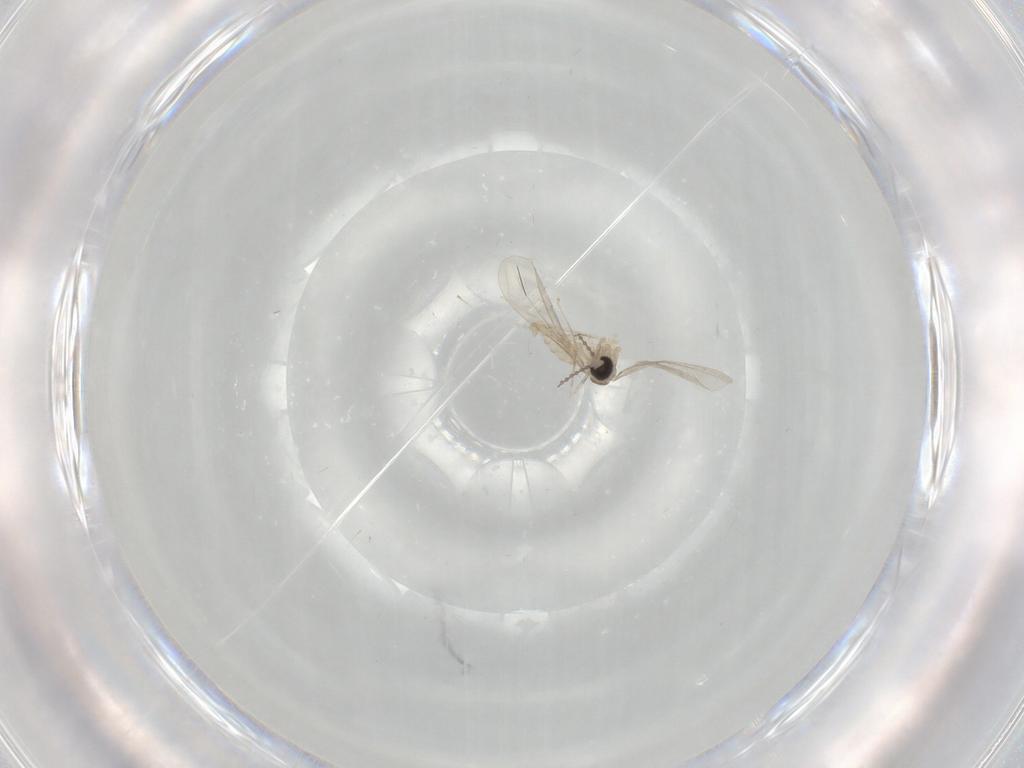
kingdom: Animalia
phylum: Arthropoda
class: Insecta
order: Diptera
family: Cecidomyiidae
